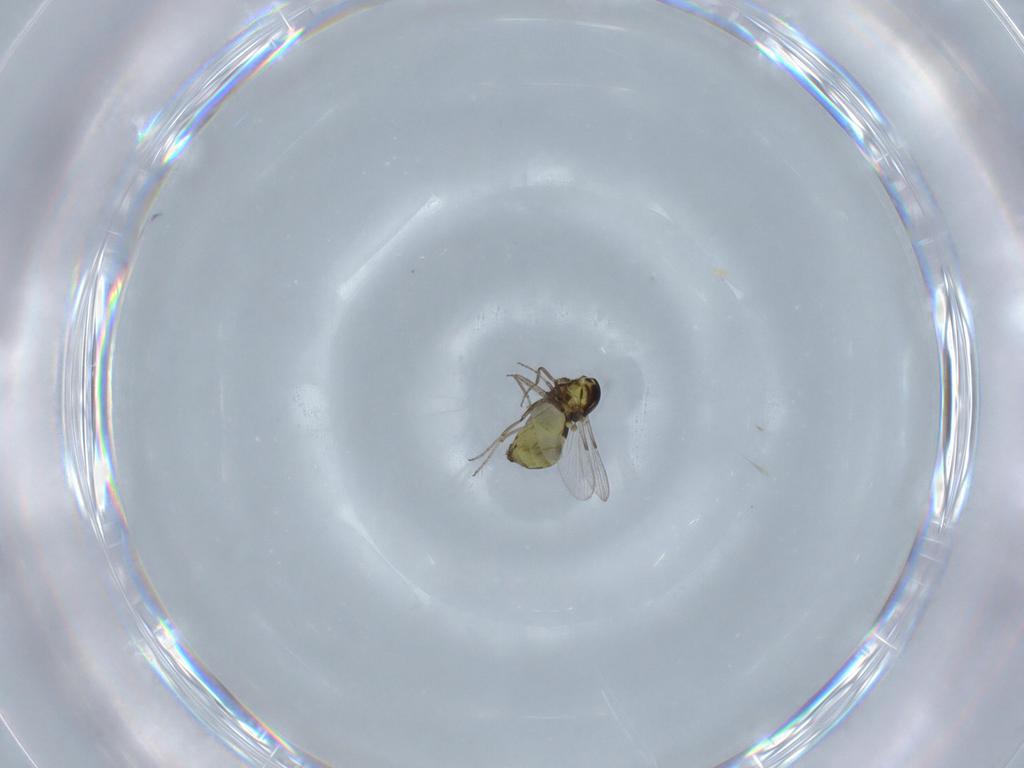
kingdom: Animalia
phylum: Arthropoda
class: Insecta
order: Diptera
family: Ceratopogonidae
